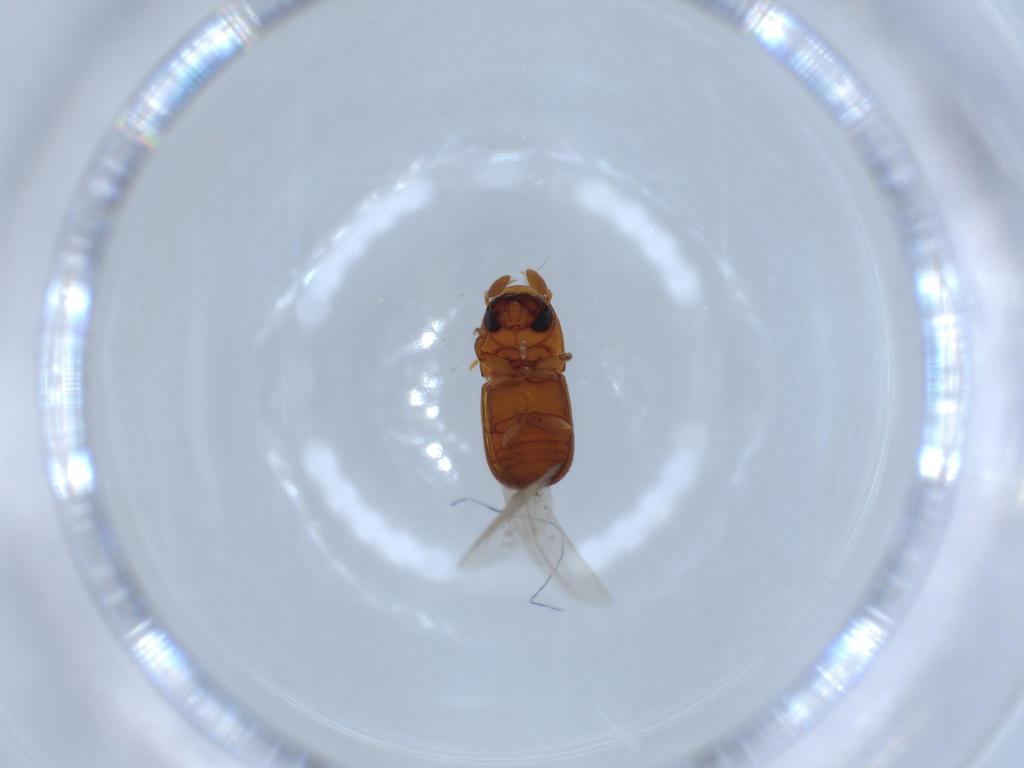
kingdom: Animalia
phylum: Arthropoda
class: Insecta
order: Coleoptera
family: Curculionidae
